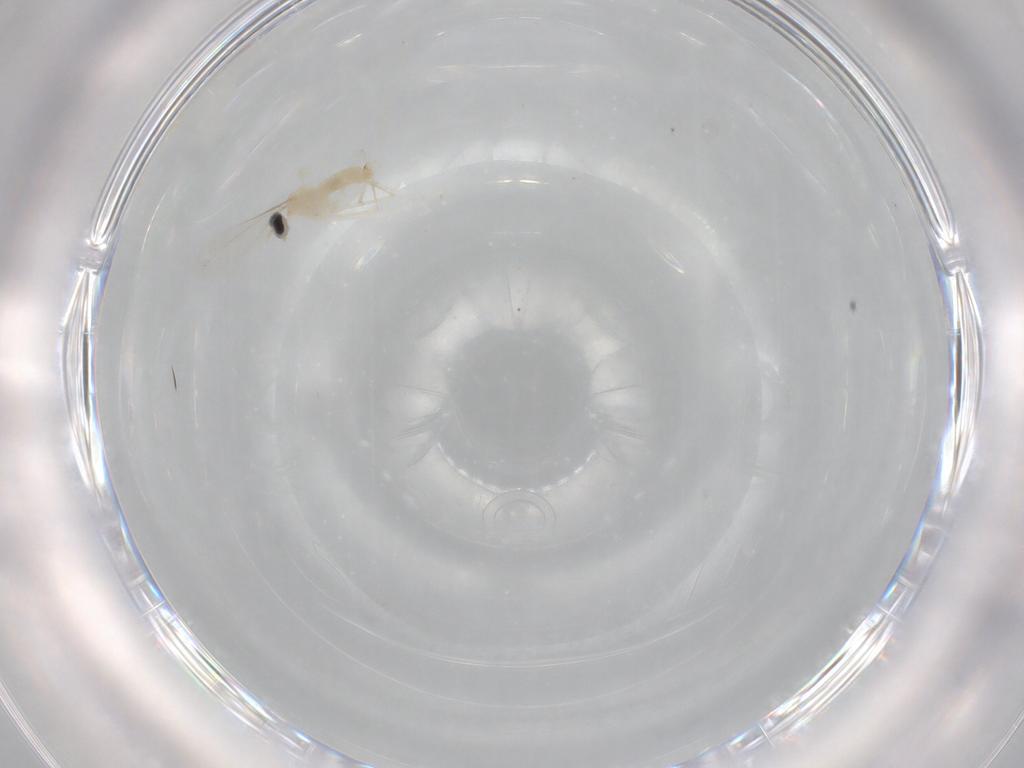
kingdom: Animalia
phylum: Arthropoda
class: Insecta
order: Diptera
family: Cecidomyiidae
